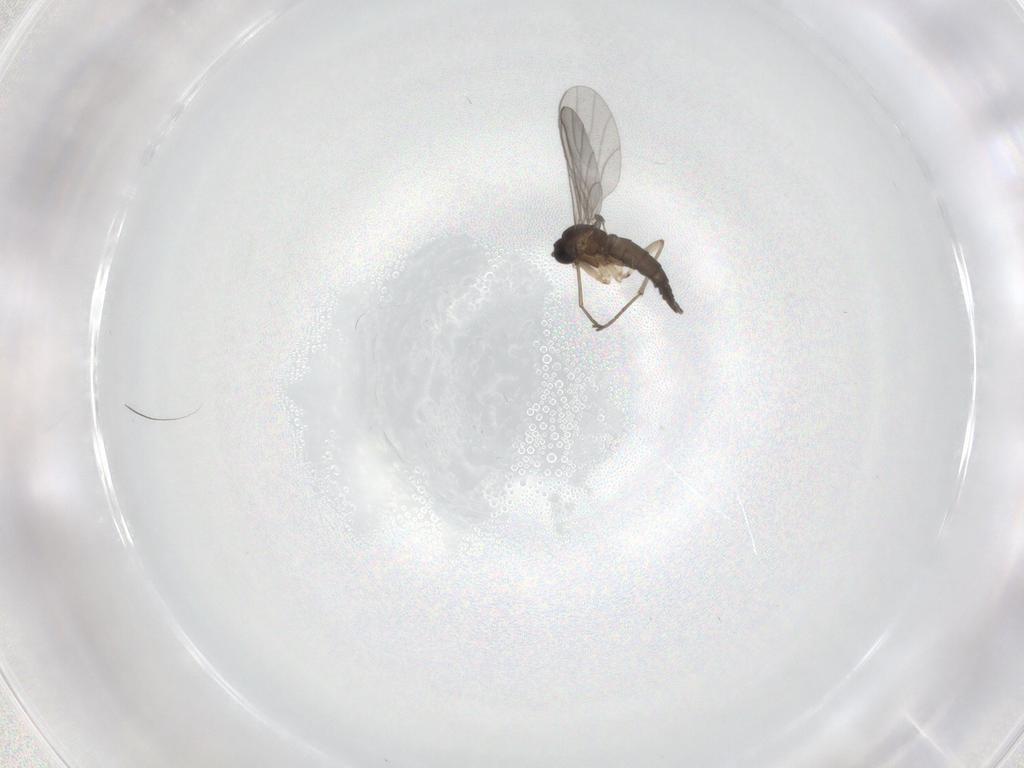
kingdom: Animalia
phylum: Arthropoda
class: Insecta
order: Diptera
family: Sciaridae
